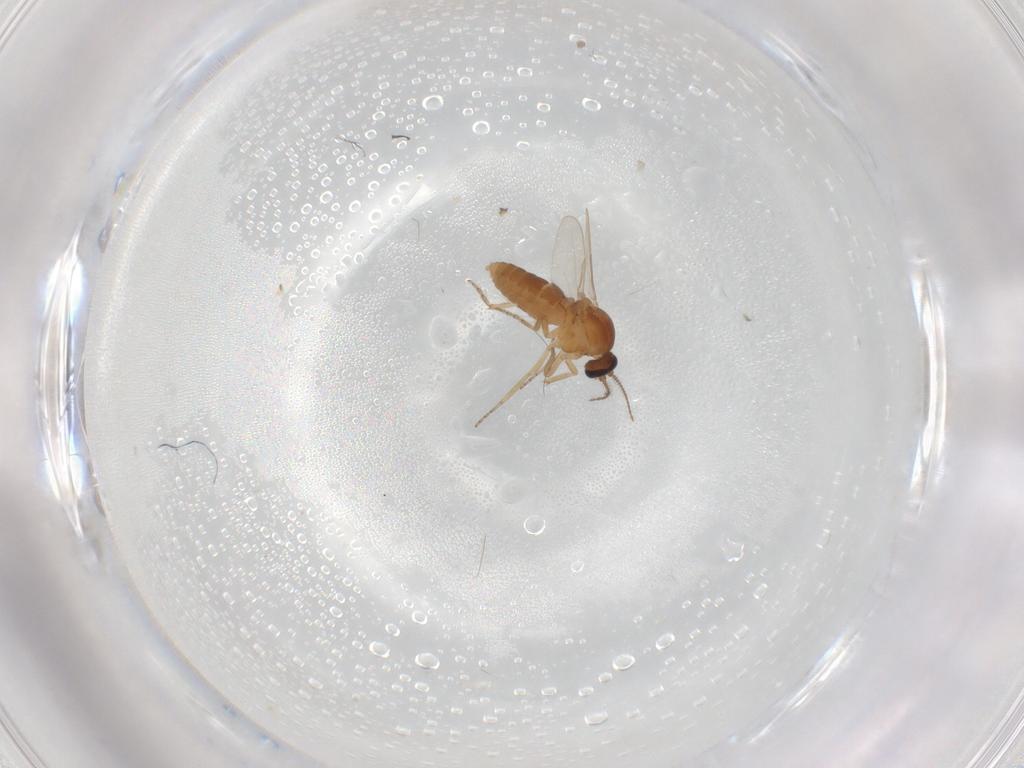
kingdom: Animalia
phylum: Arthropoda
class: Insecta
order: Diptera
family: Ceratopogonidae
